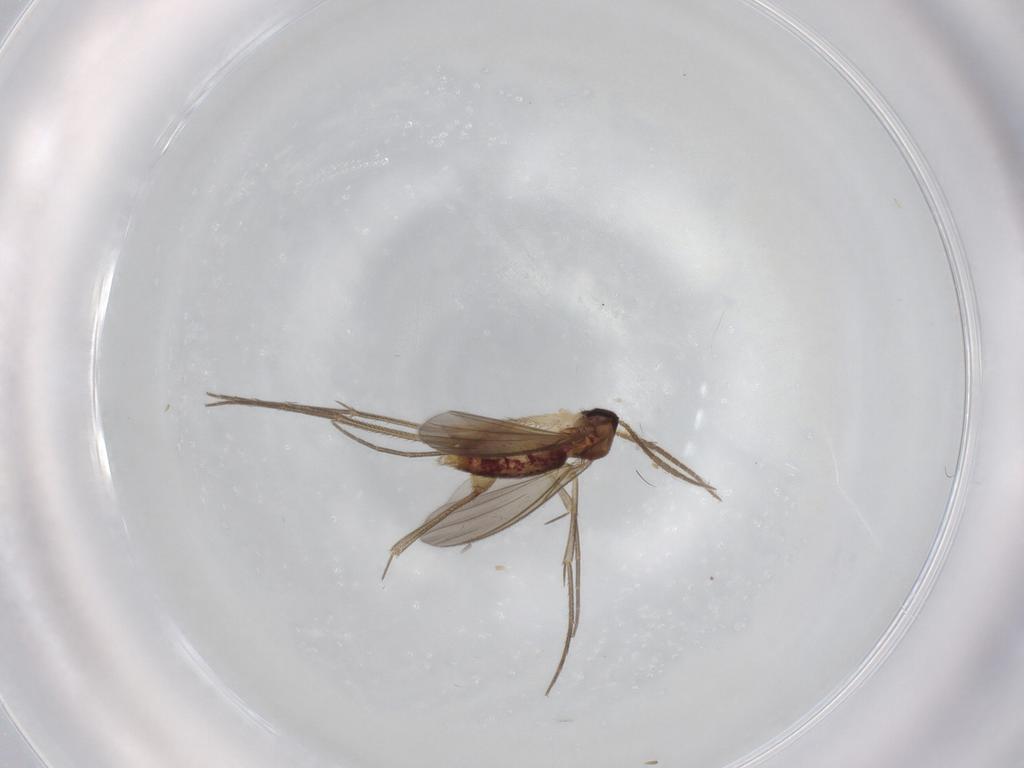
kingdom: Animalia
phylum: Arthropoda
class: Insecta
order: Diptera
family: Mycetophilidae
